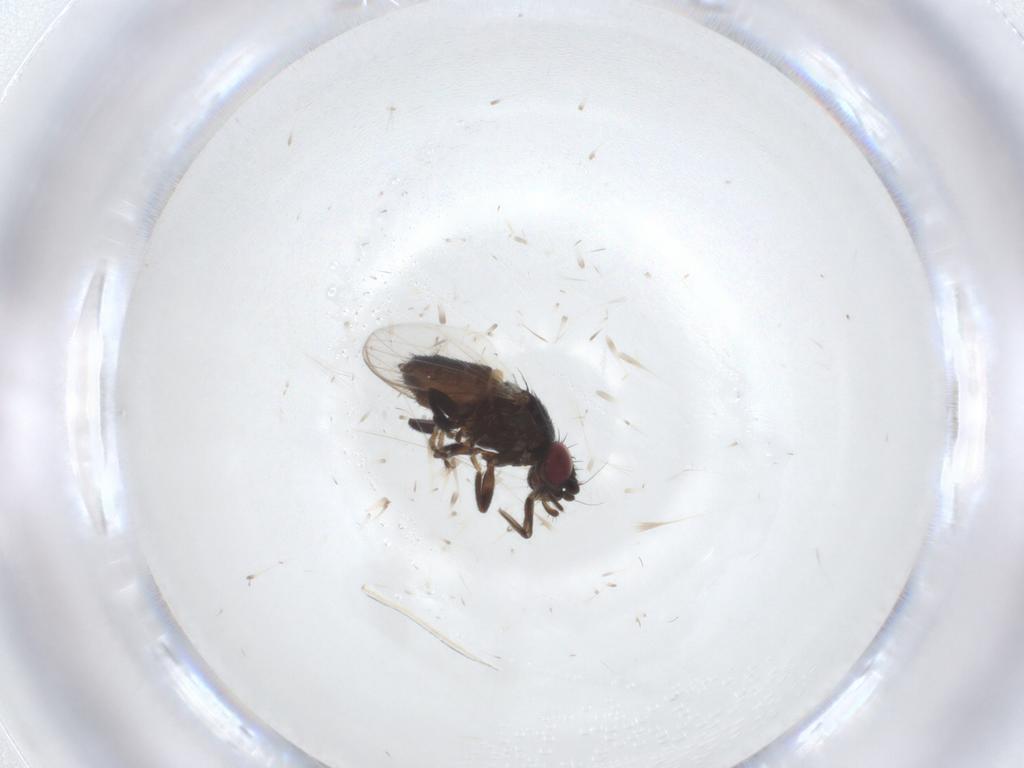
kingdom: Animalia
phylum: Arthropoda
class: Insecta
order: Diptera
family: Milichiidae
